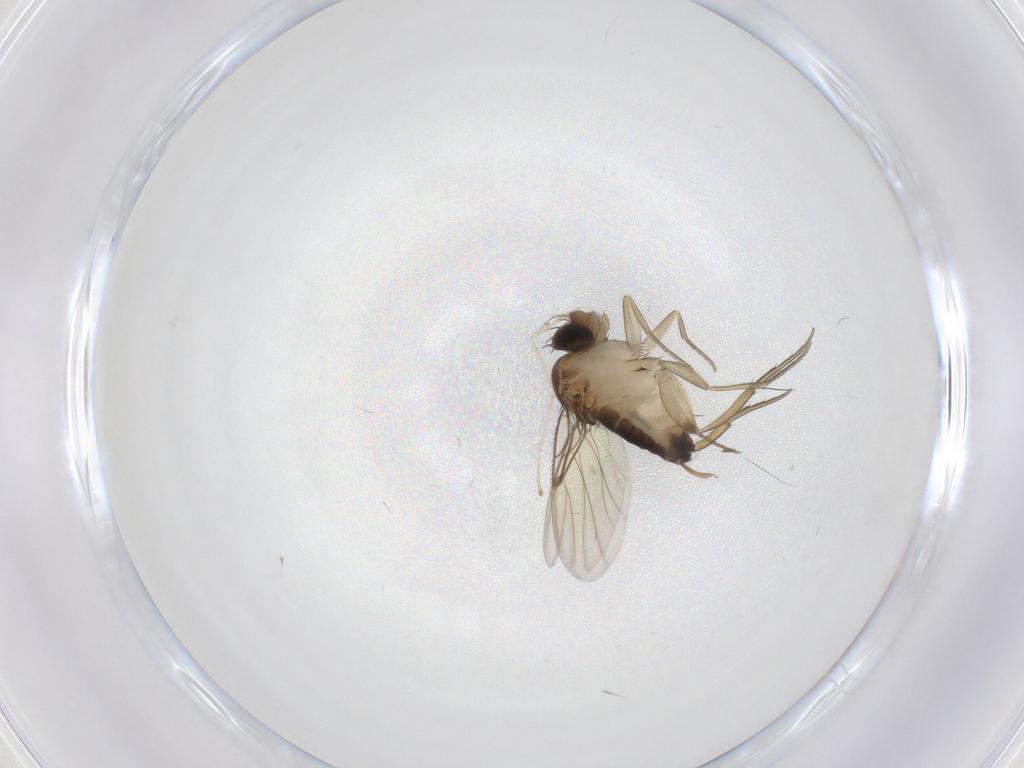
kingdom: Animalia
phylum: Arthropoda
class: Insecta
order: Diptera
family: Phoridae
